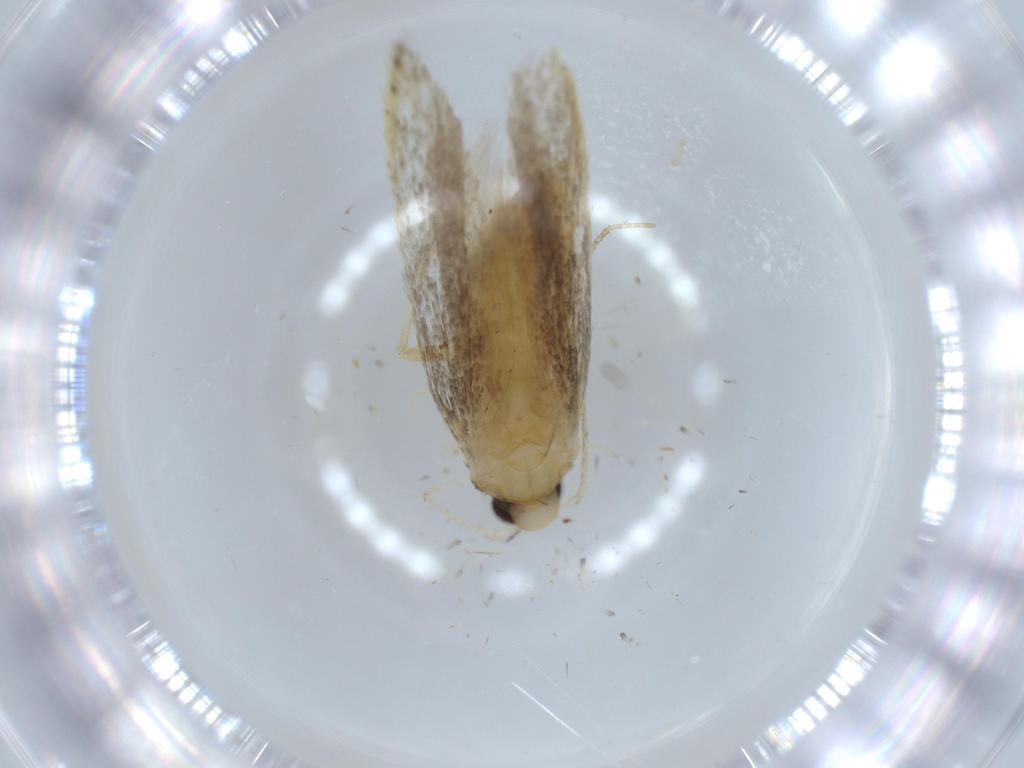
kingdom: Animalia
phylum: Arthropoda
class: Insecta
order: Lepidoptera
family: Autostichidae
